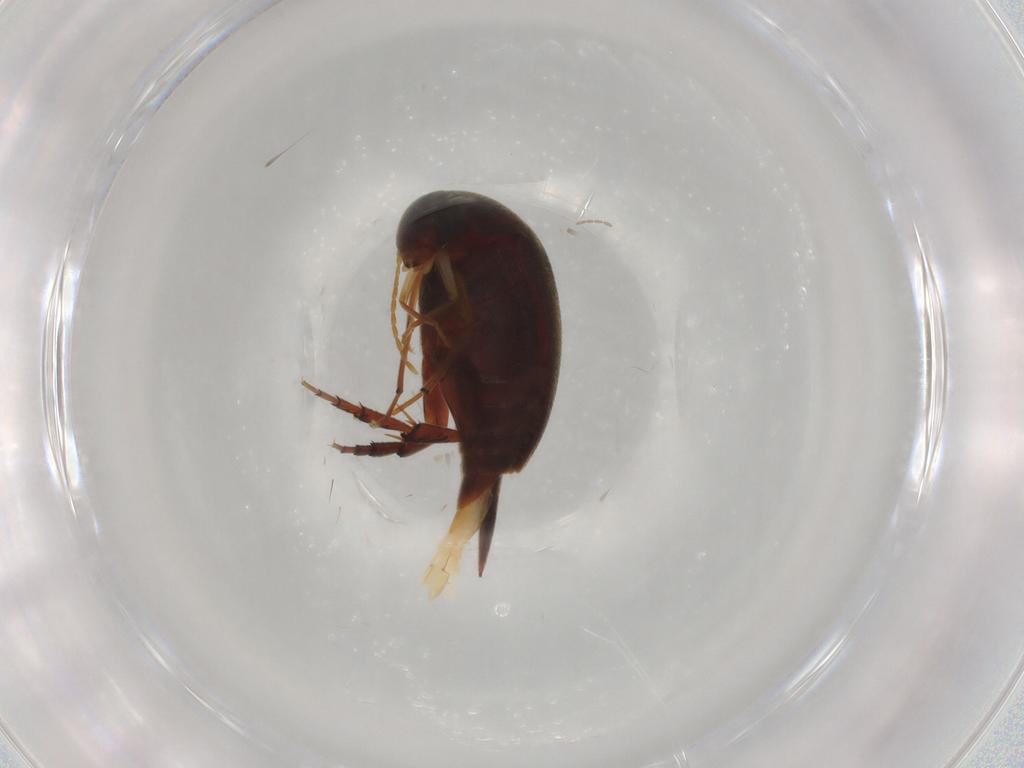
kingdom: Animalia
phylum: Arthropoda
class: Insecta
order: Coleoptera
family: Mordellidae
